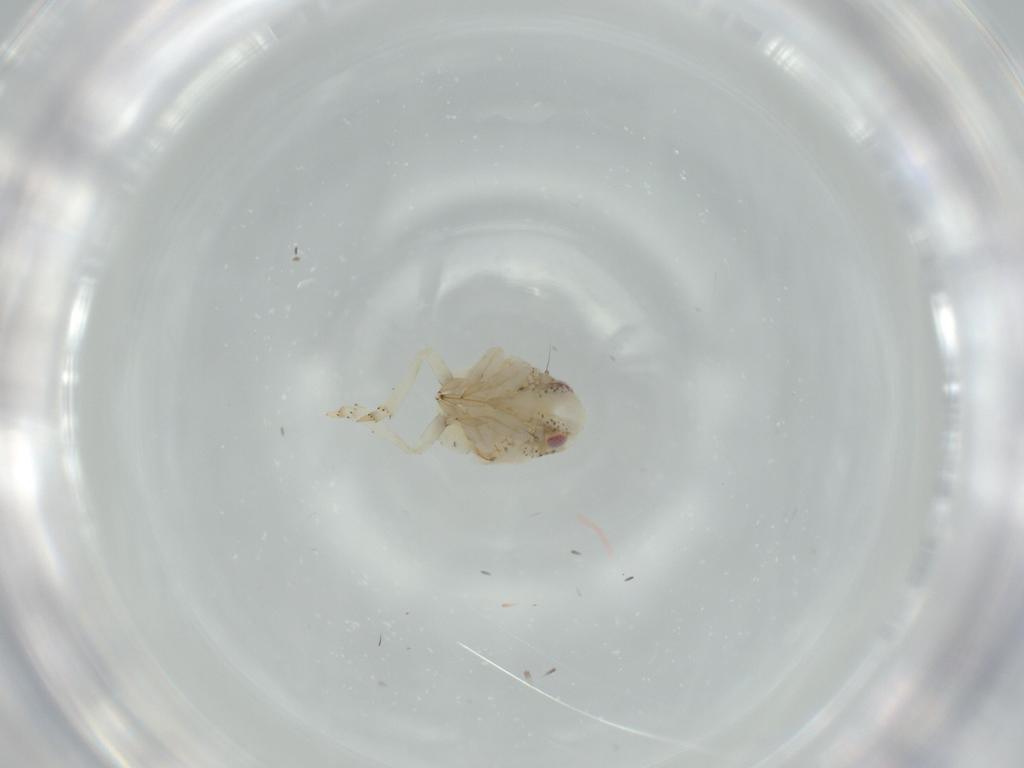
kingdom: Animalia
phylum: Arthropoda
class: Insecta
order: Hemiptera
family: Acanaloniidae
